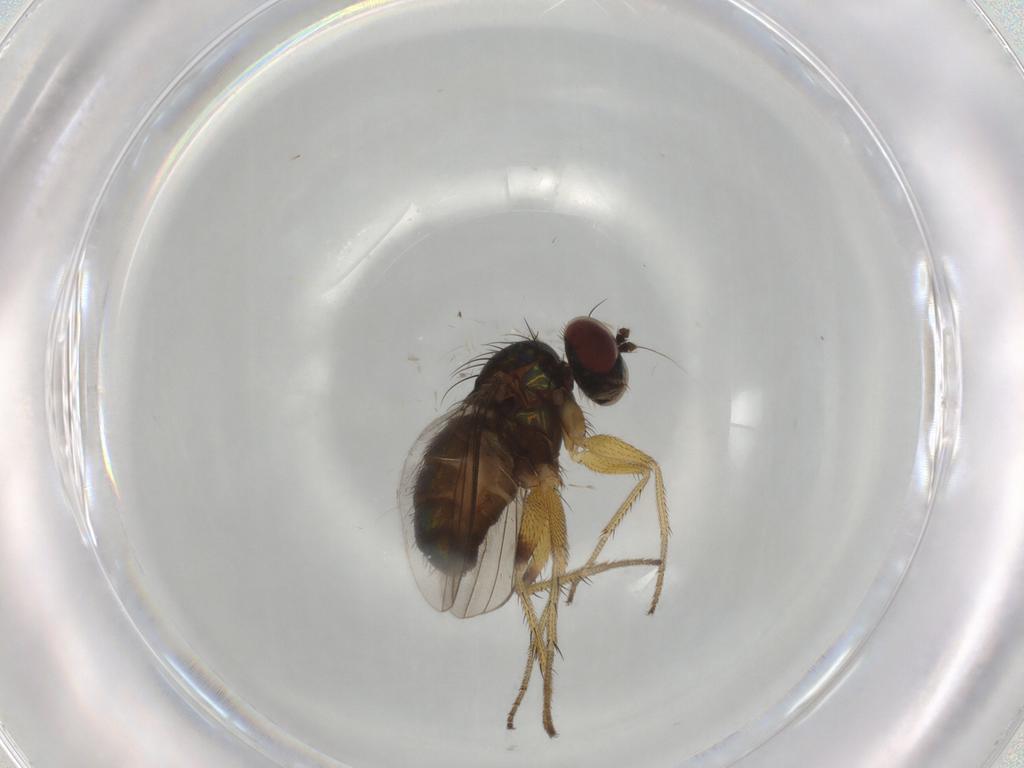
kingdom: Animalia
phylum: Arthropoda
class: Insecta
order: Diptera
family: Dolichopodidae
